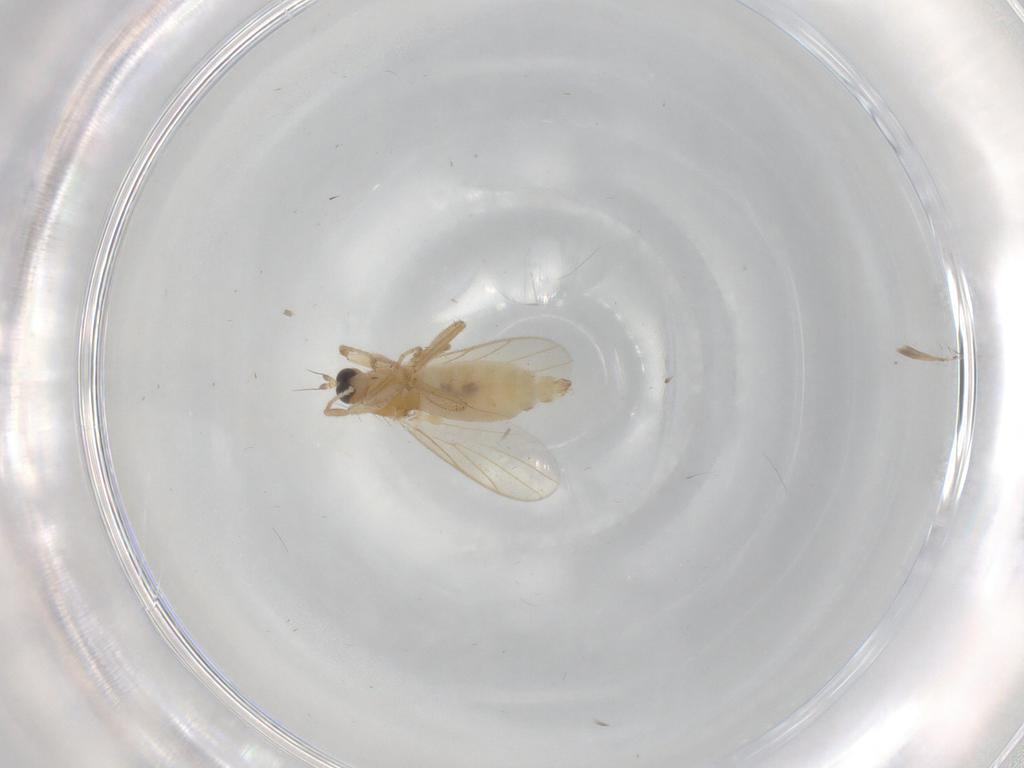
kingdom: Animalia
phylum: Arthropoda
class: Insecta
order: Diptera
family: Hybotidae
